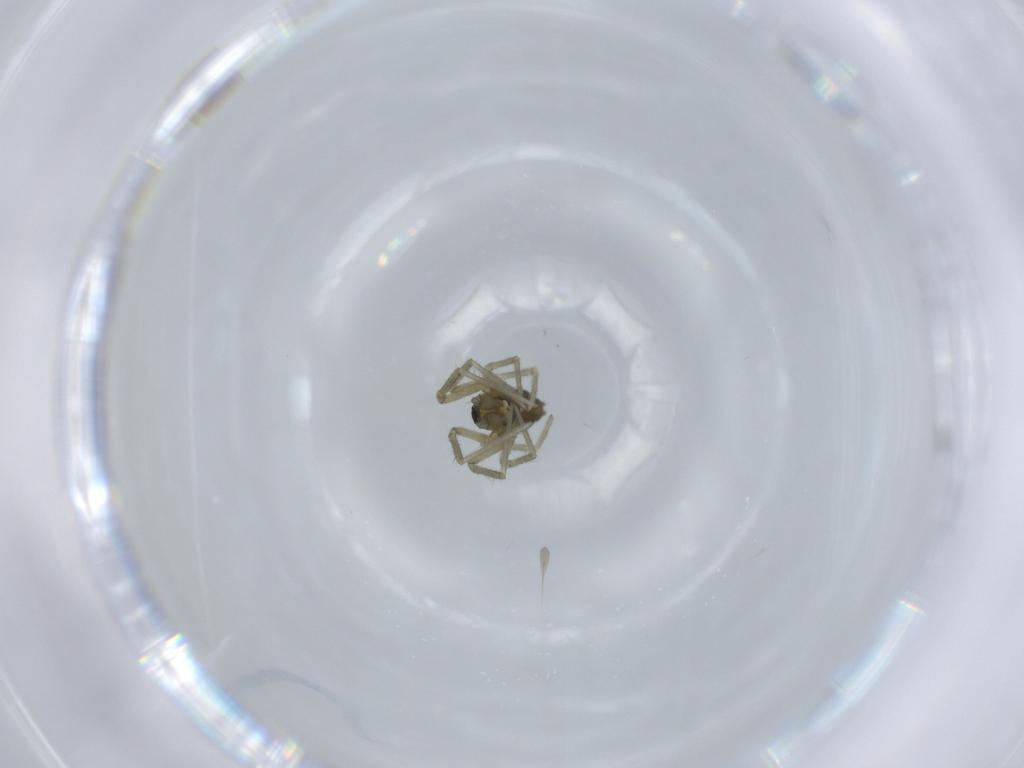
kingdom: Animalia
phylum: Arthropoda
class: Arachnida
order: Araneae
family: Linyphiidae
